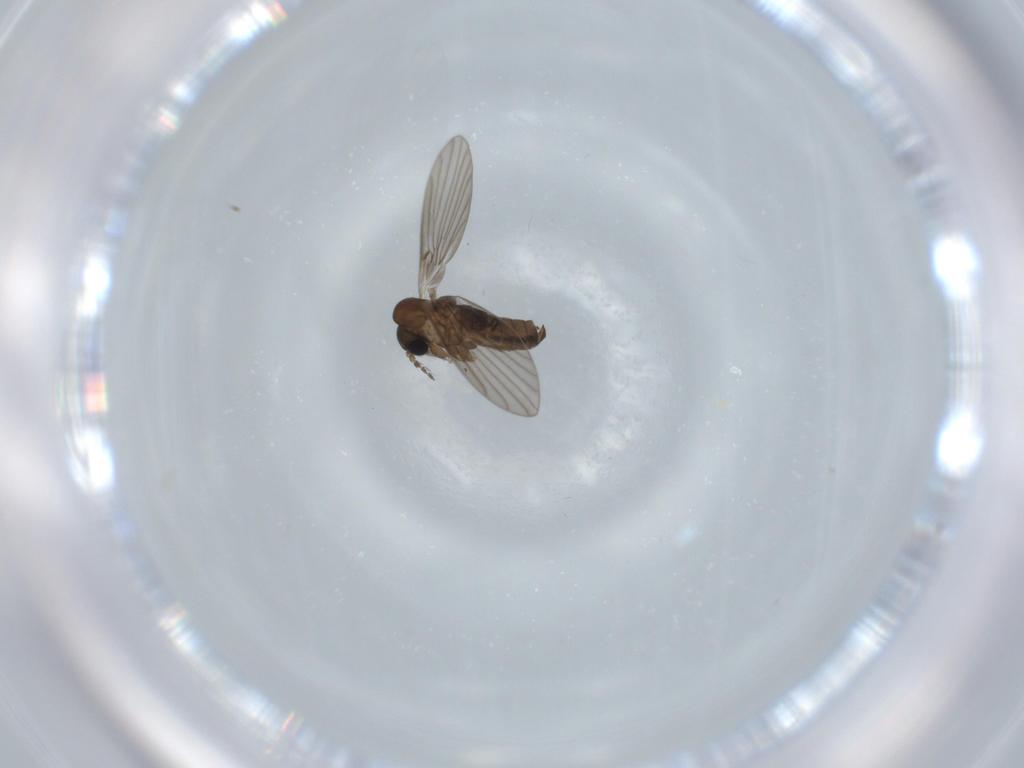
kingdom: Animalia
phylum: Arthropoda
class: Insecta
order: Diptera
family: Psychodidae
